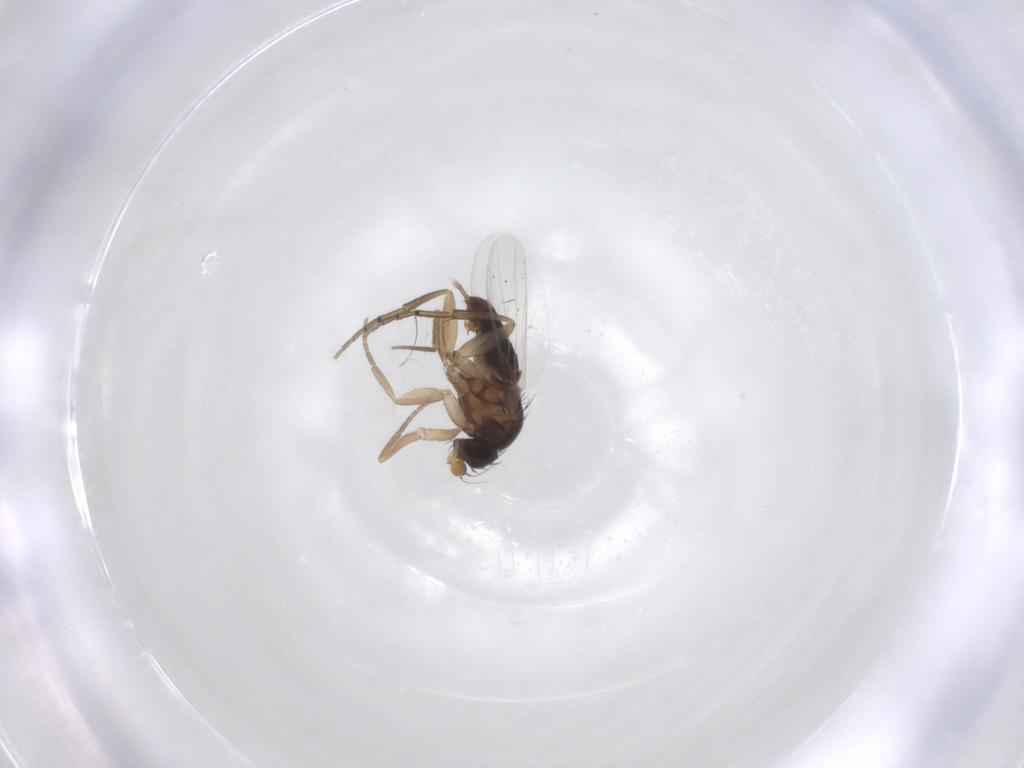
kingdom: Animalia
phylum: Arthropoda
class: Insecta
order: Diptera
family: Phoridae
